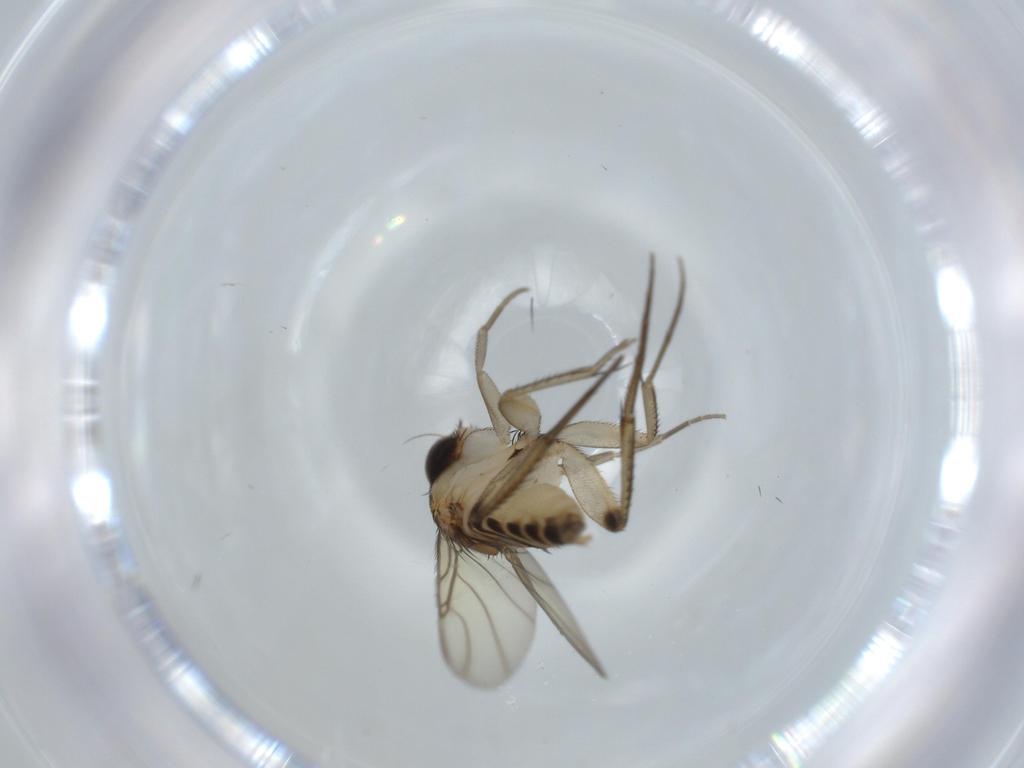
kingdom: Animalia
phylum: Arthropoda
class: Insecta
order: Diptera
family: Phoridae
